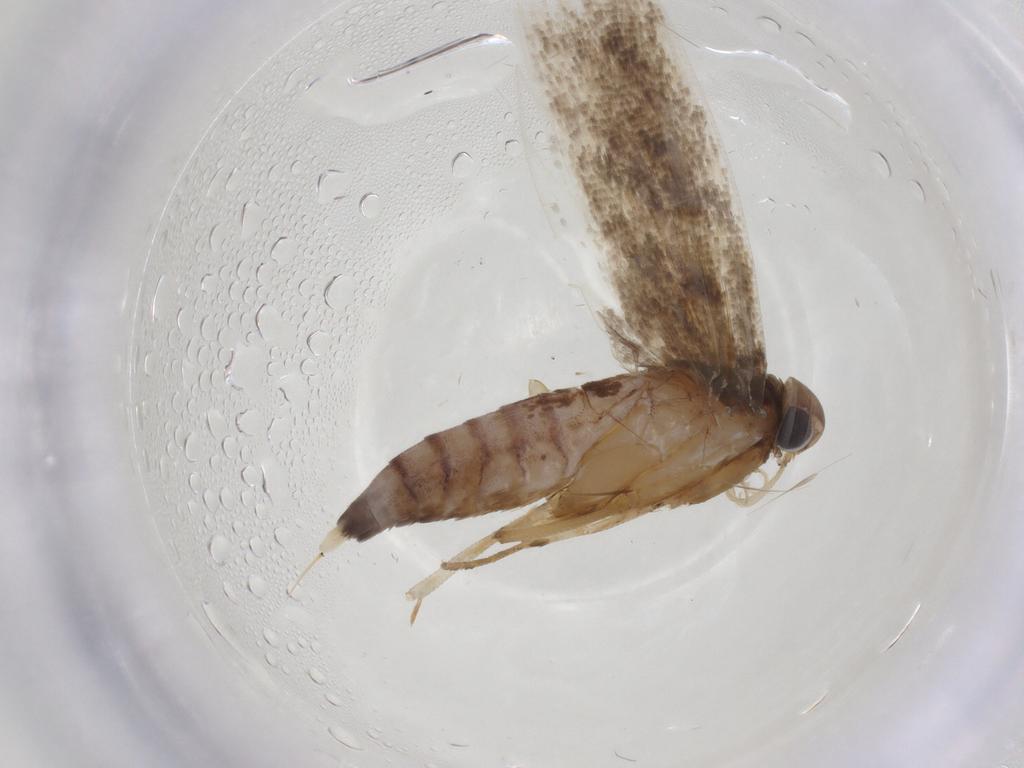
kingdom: Animalia
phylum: Arthropoda
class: Insecta
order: Lepidoptera
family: Gelechiidae
